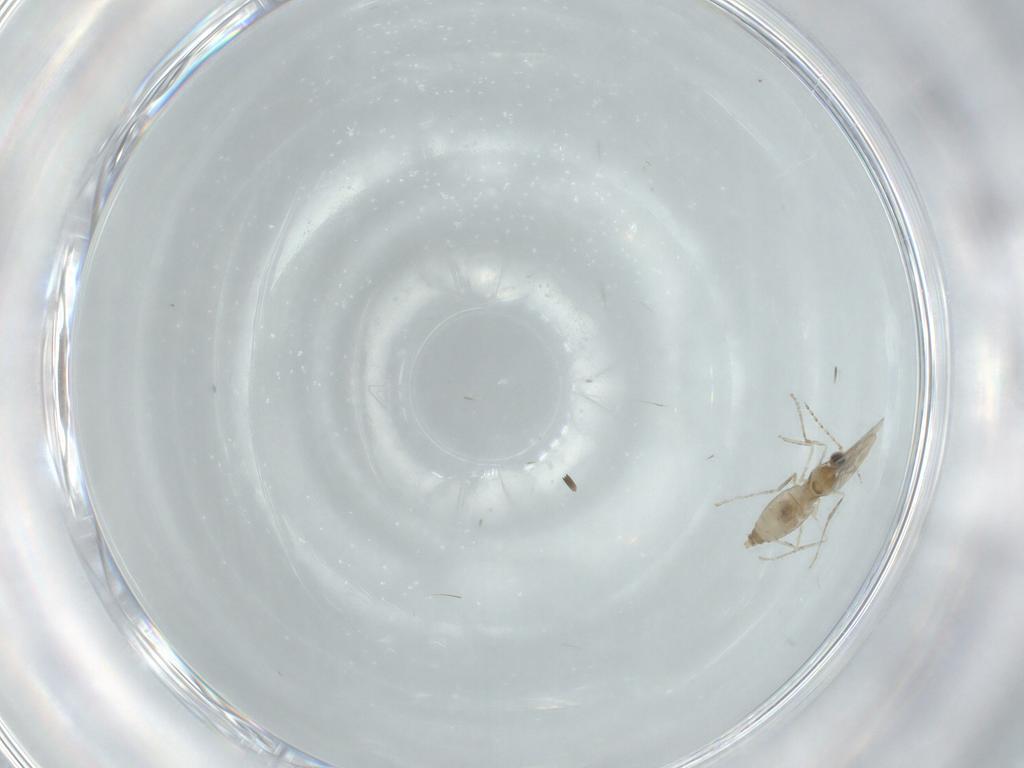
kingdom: Animalia
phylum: Arthropoda
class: Insecta
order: Diptera
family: Cecidomyiidae
